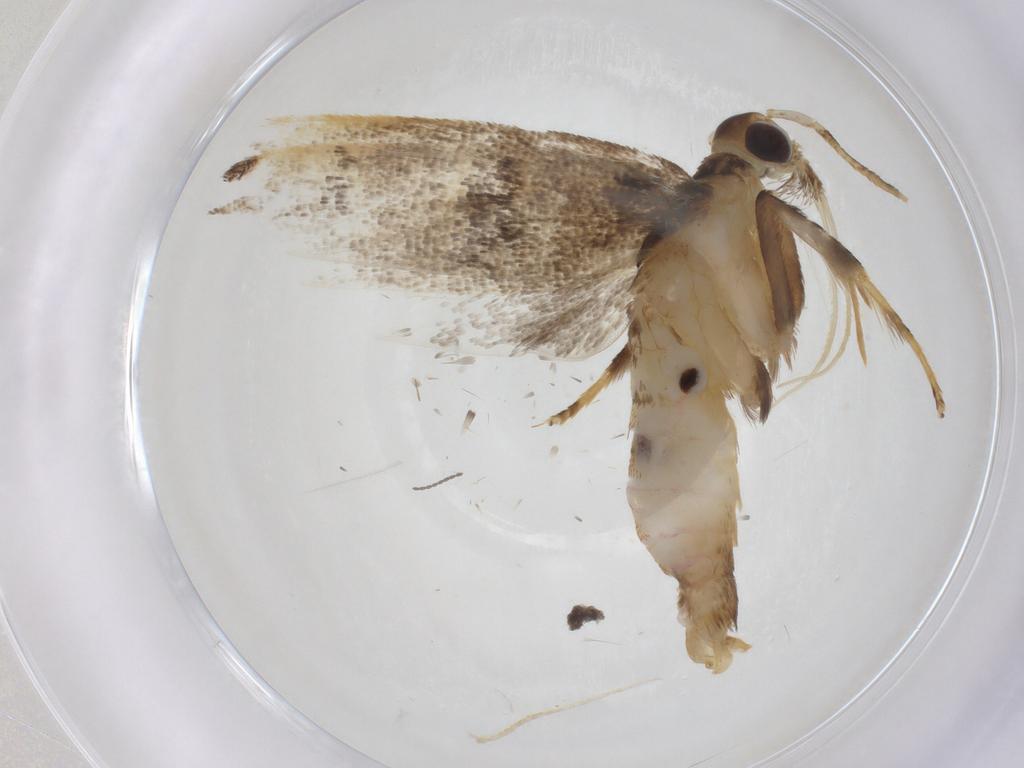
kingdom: Animalia
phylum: Arthropoda
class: Insecta
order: Lepidoptera
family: Lecithoceridae
